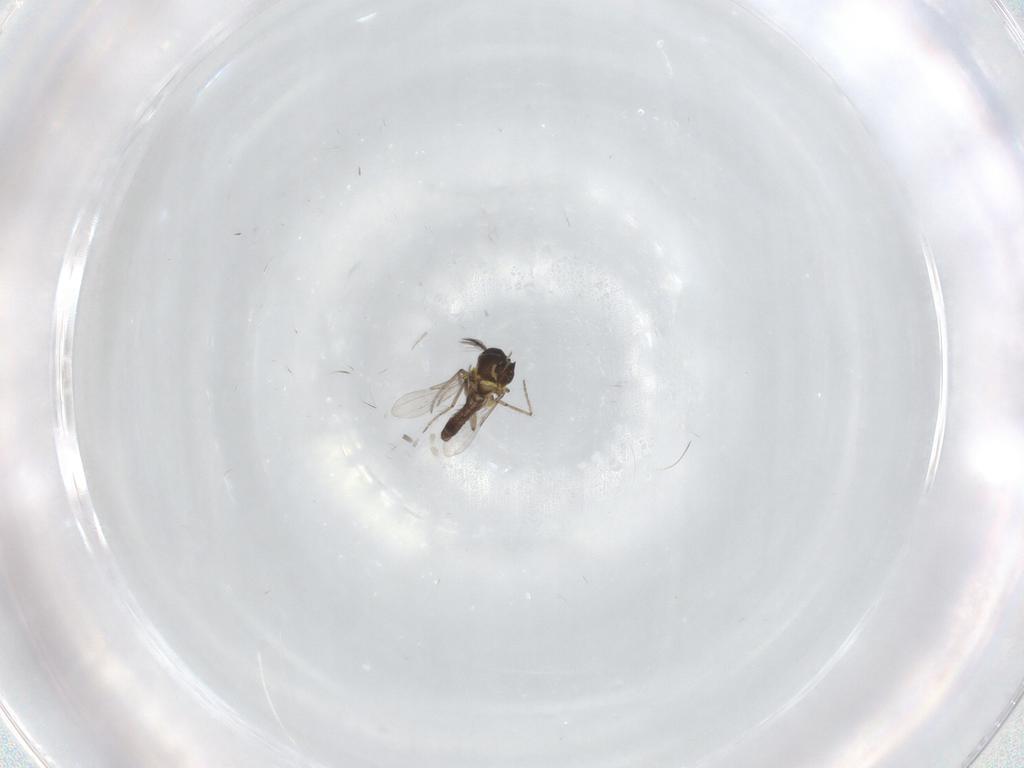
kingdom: Animalia
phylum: Arthropoda
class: Insecta
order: Diptera
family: Ceratopogonidae
